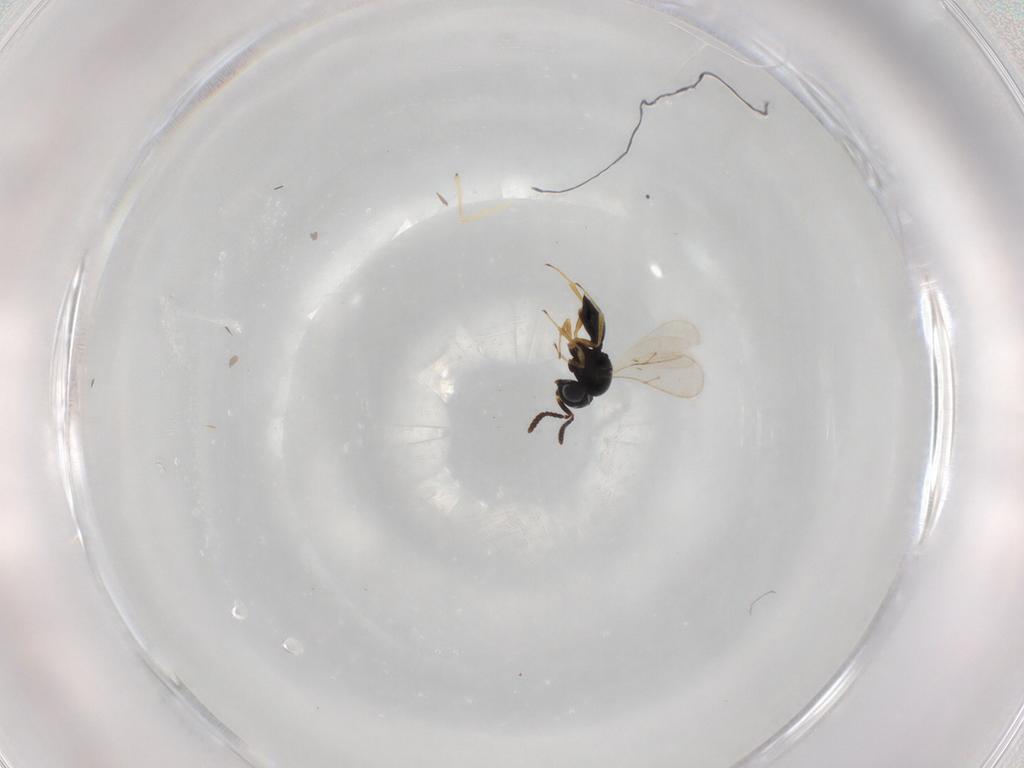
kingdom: Animalia
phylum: Arthropoda
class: Insecta
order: Hymenoptera
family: Scelionidae
